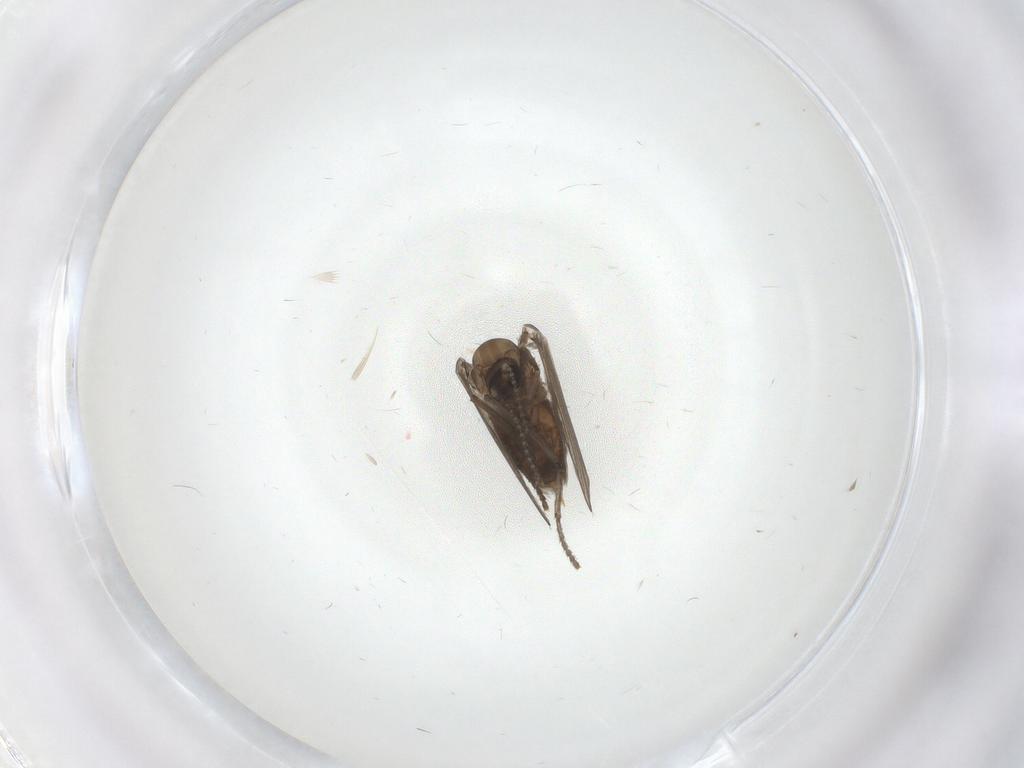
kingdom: Animalia
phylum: Arthropoda
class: Insecta
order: Diptera
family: Psychodidae
